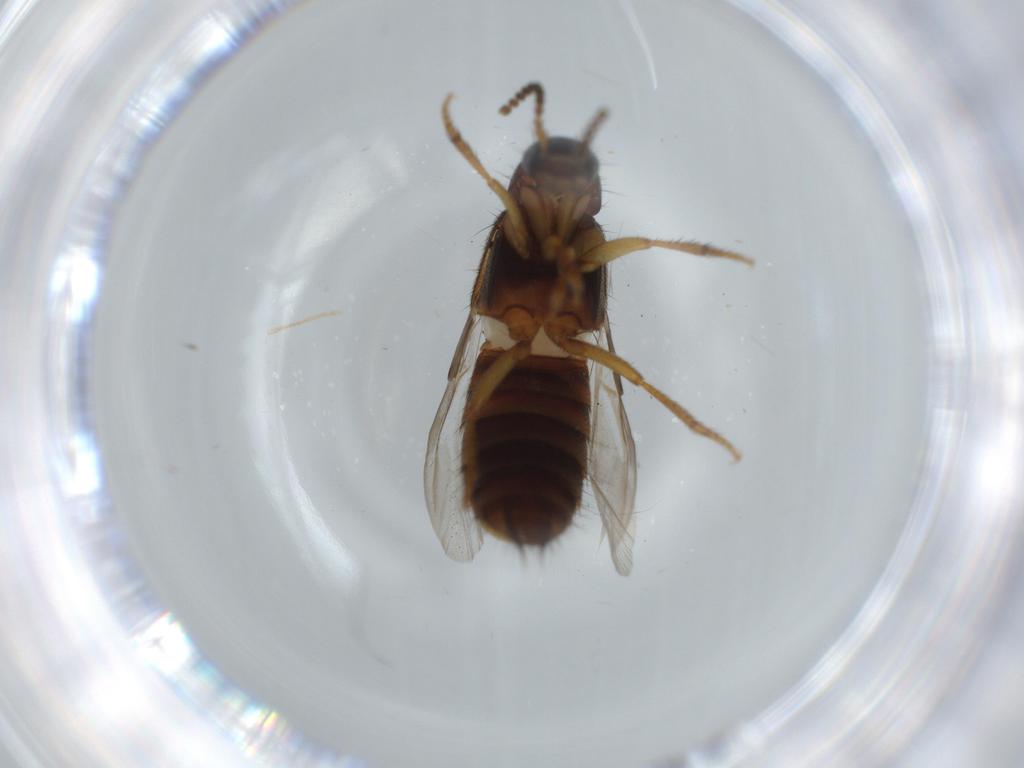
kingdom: Animalia
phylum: Arthropoda
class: Insecta
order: Coleoptera
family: Staphylinidae
